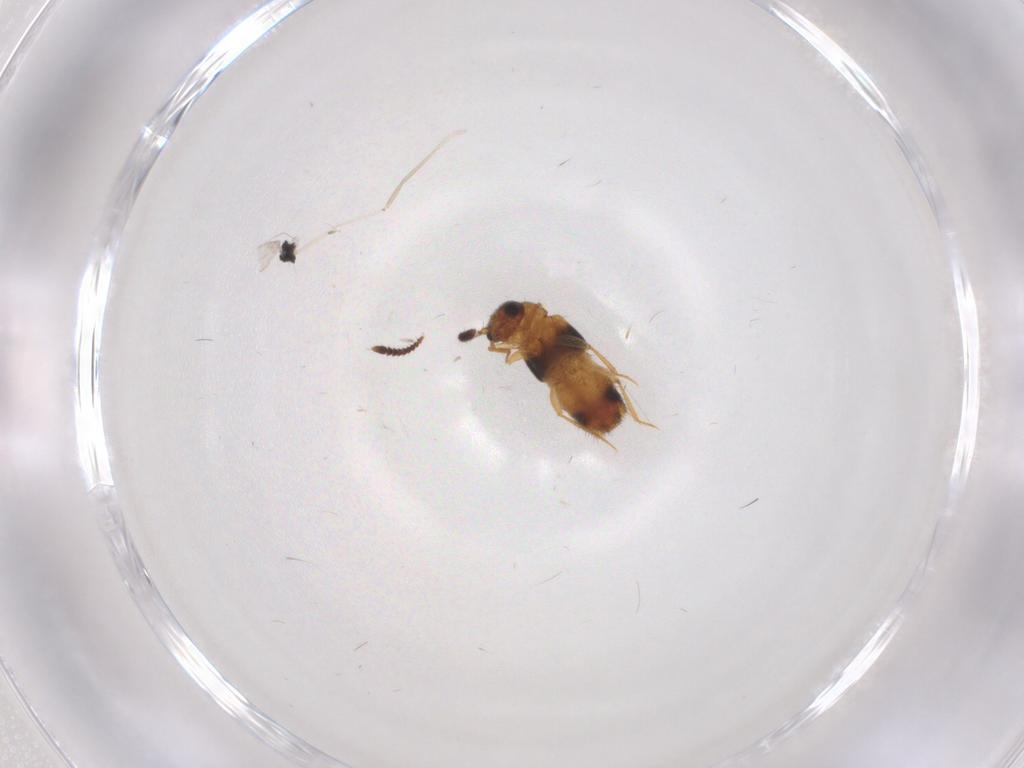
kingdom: Animalia
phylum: Arthropoda
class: Insecta
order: Coleoptera
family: Staphylinidae
